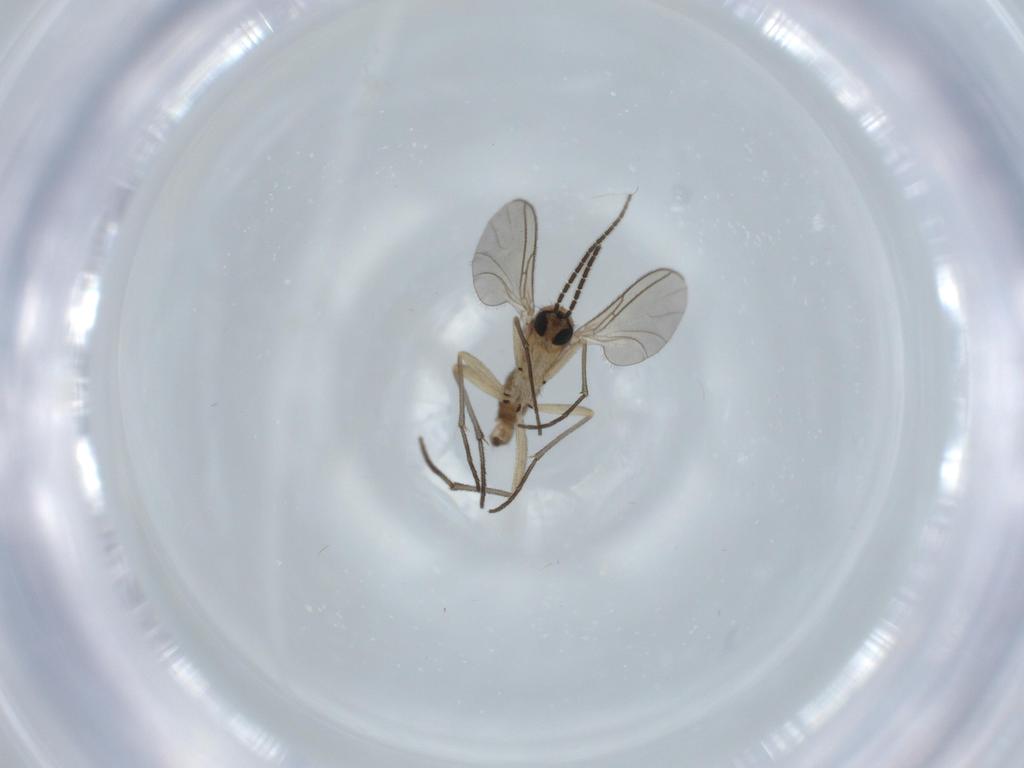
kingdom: Animalia
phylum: Arthropoda
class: Insecta
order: Diptera
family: Sciaridae
